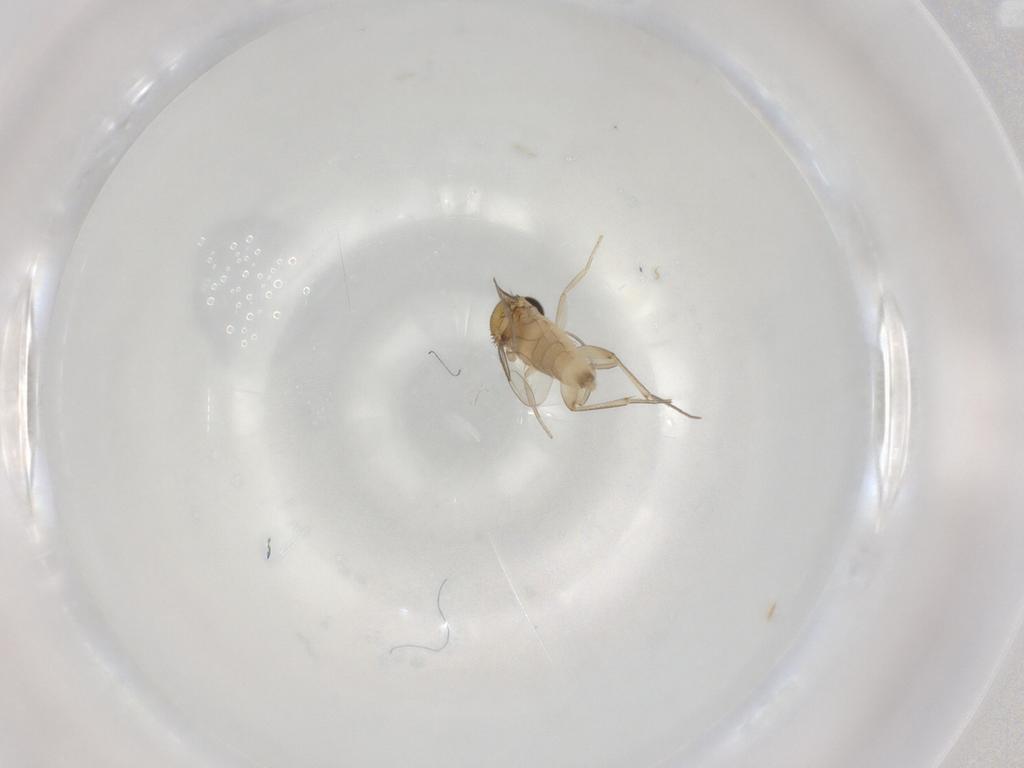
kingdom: Animalia
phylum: Arthropoda
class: Insecta
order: Diptera
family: Phoridae
